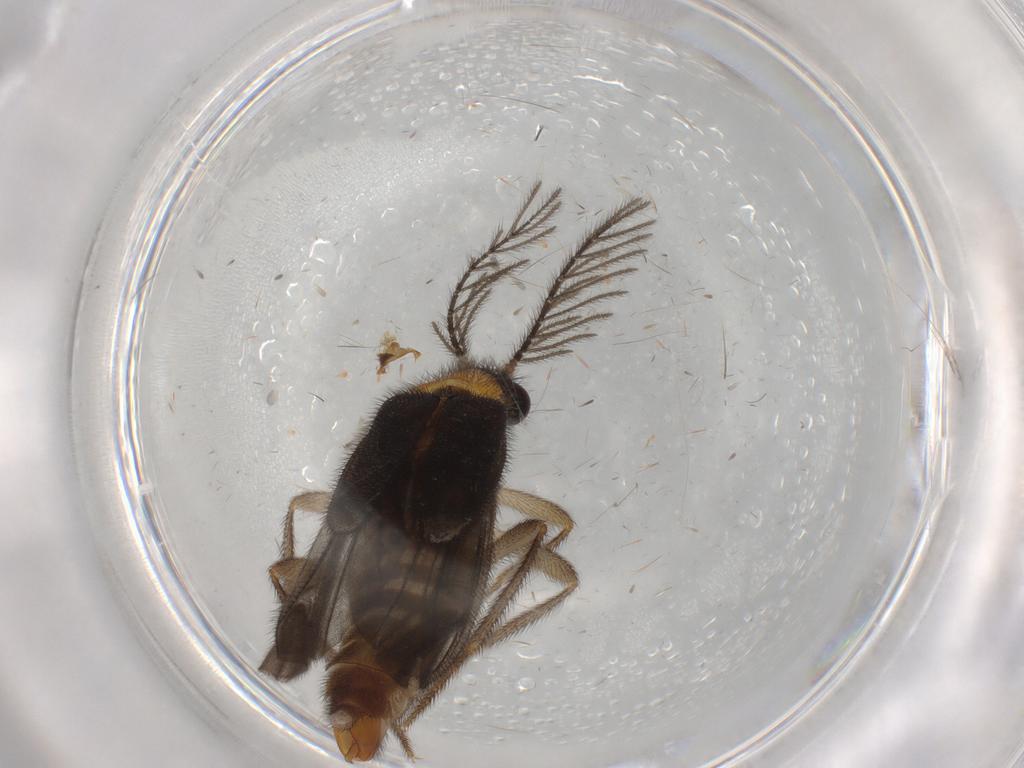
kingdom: Animalia
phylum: Arthropoda
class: Insecta
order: Coleoptera
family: Phengodidae
